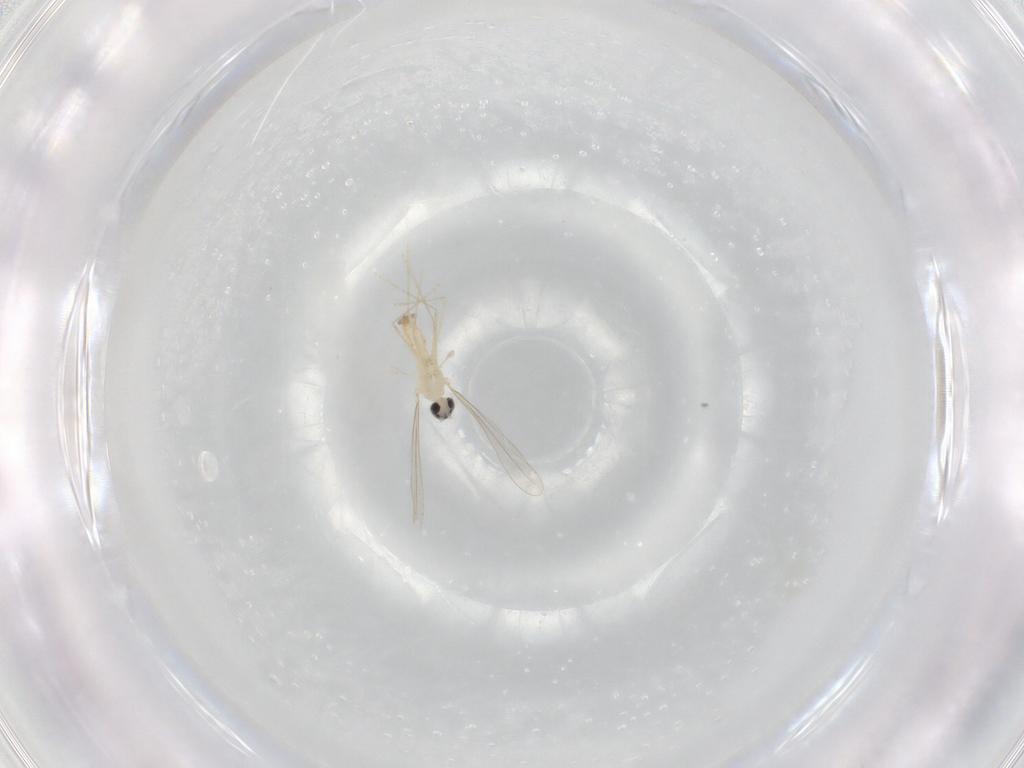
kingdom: Animalia
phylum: Arthropoda
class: Insecta
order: Diptera
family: Cecidomyiidae
